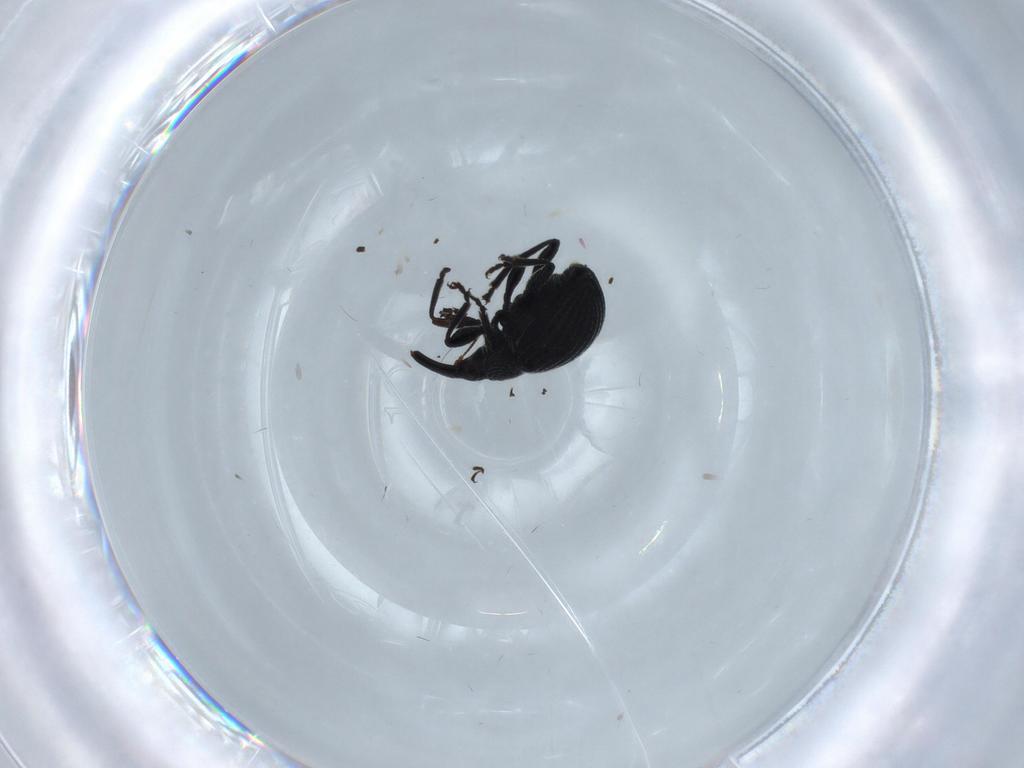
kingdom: Animalia
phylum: Arthropoda
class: Insecta
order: Coleoptera
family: Brentidae
